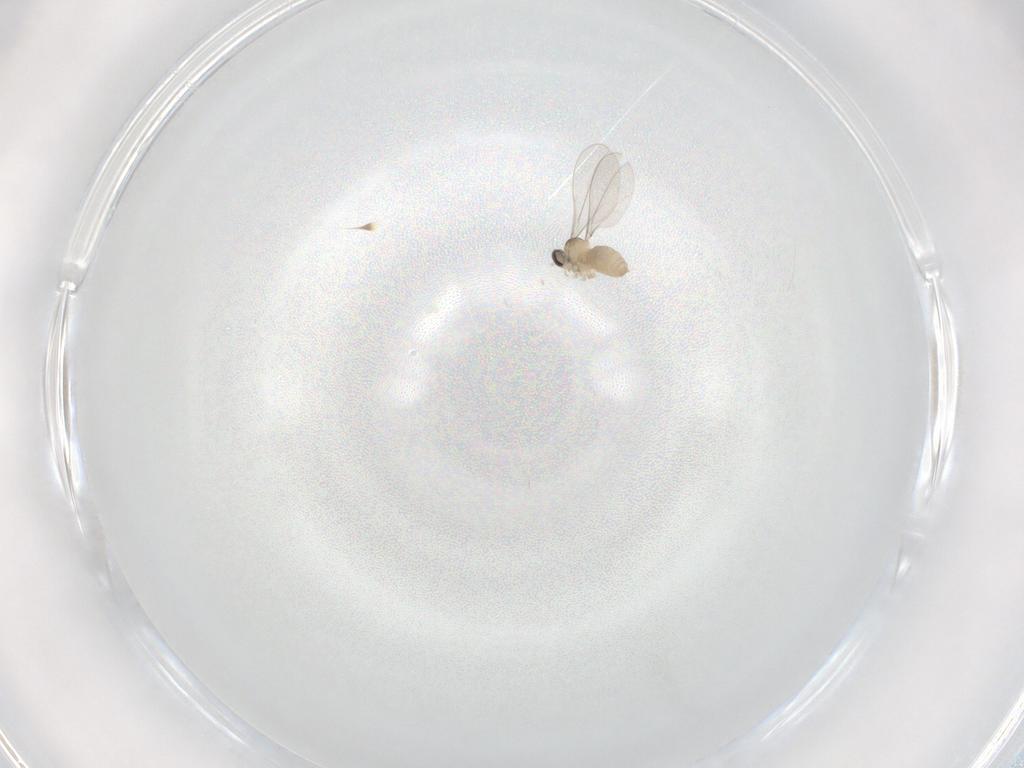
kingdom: Animalia
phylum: Arthropoda
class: Insecta
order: Diptera
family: Cecidomyiidae
